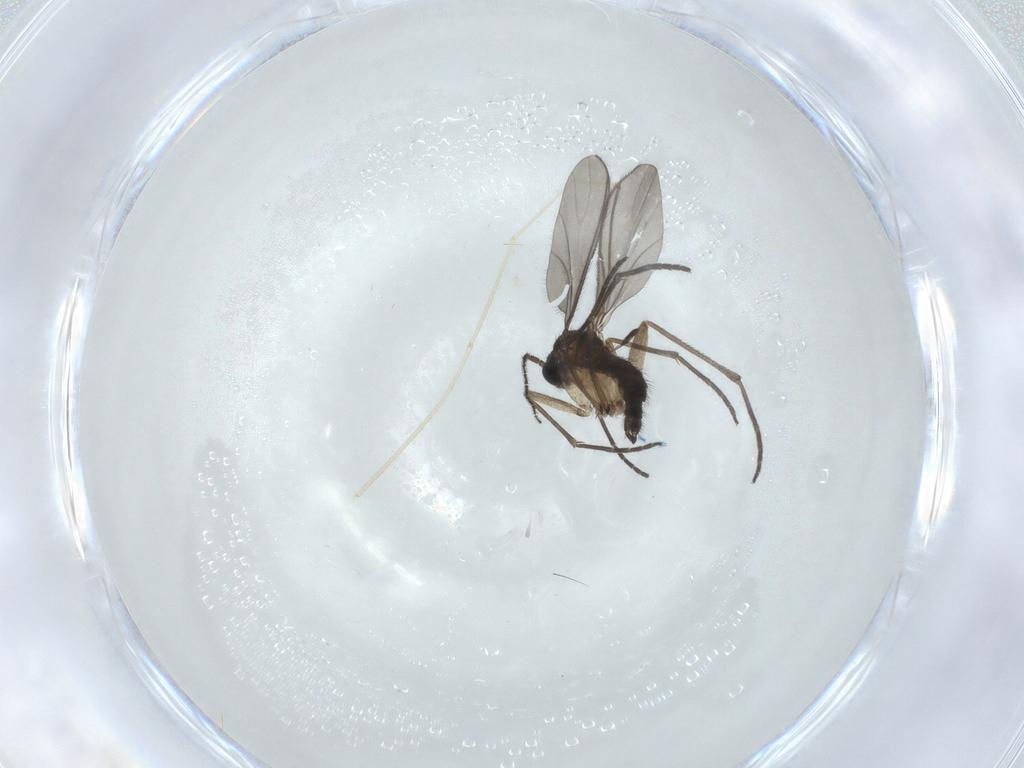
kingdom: Animalia
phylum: Arthropoda
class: Insecta
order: Diptera
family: Sciaridae
